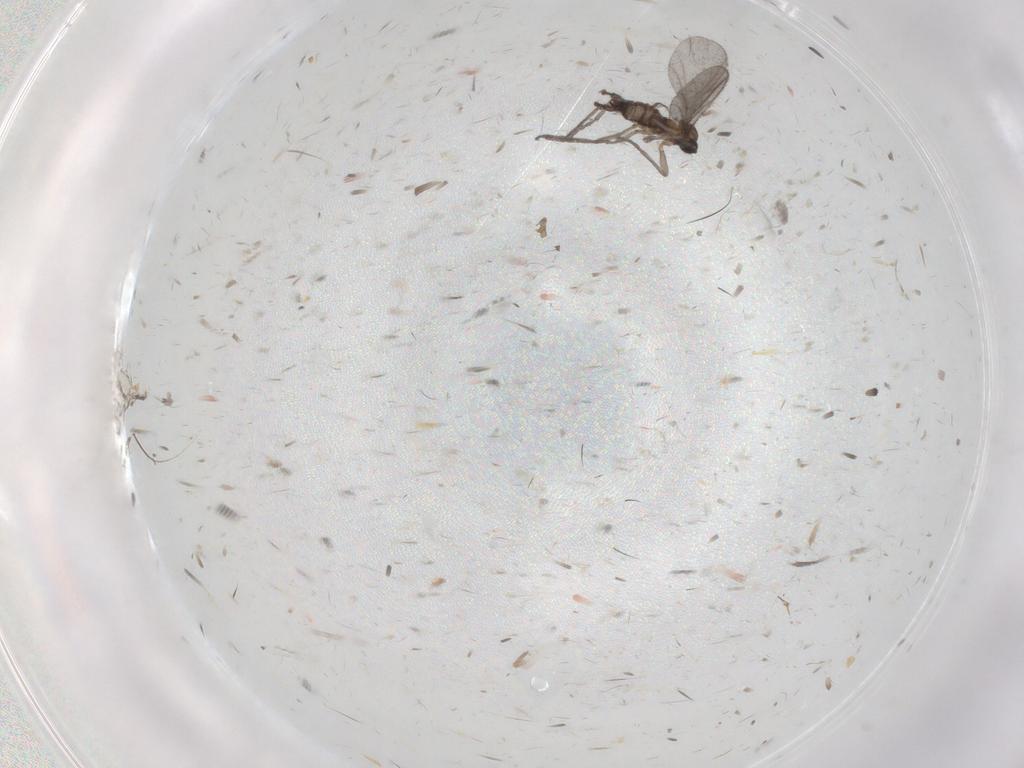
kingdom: Animalia
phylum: Arthropoda
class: Insecta
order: Diptera
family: Sciaridae
